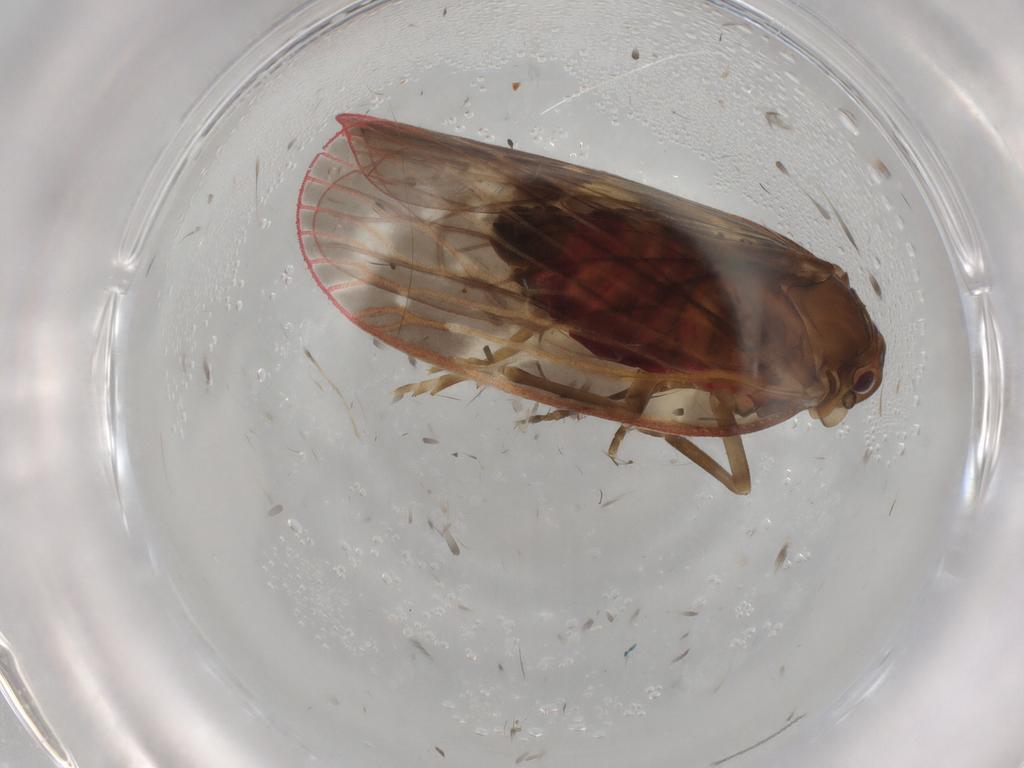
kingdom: Animalia
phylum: Arthropoda
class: Insecta
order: Hemiptera
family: Achilidae
